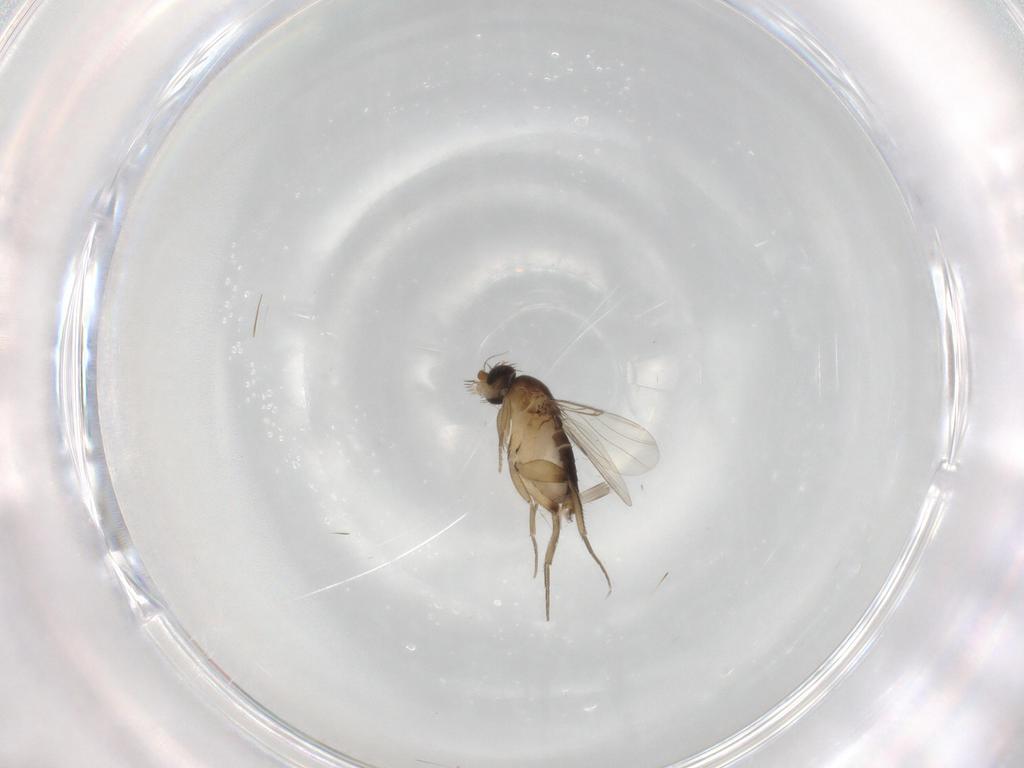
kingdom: Animalia
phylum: Arthropoda
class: Insecta
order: Diptera
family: Phoridae
